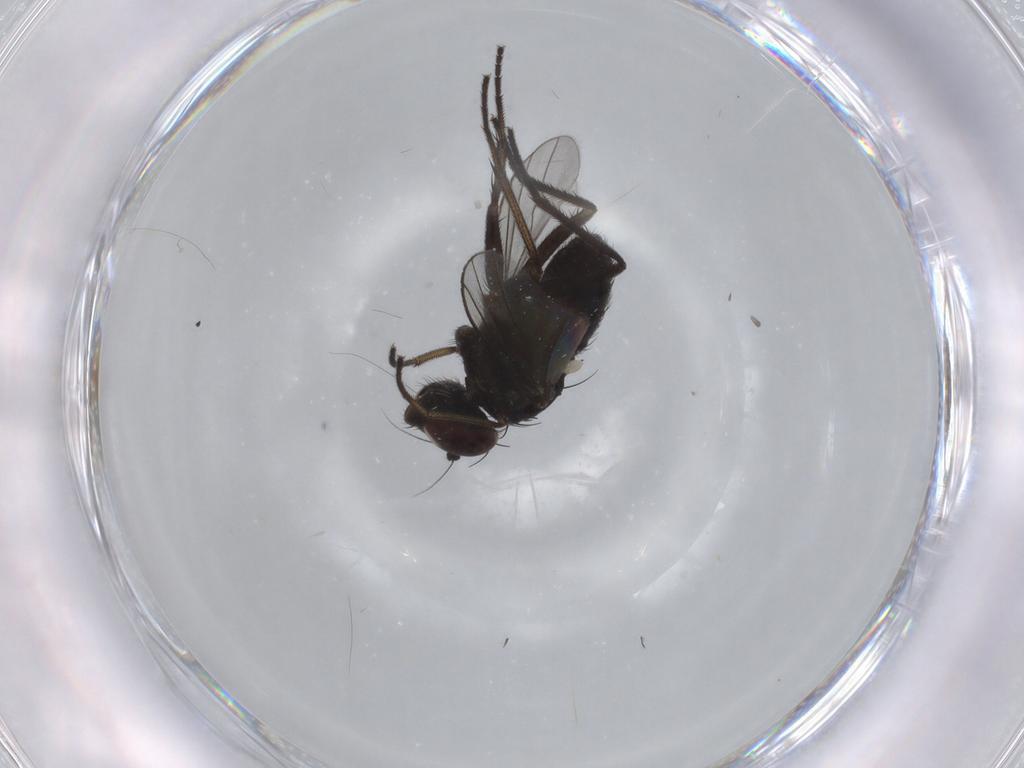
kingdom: Animalia
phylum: Arthropoda
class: Insecta
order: Diptera
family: Dolichopodidae
